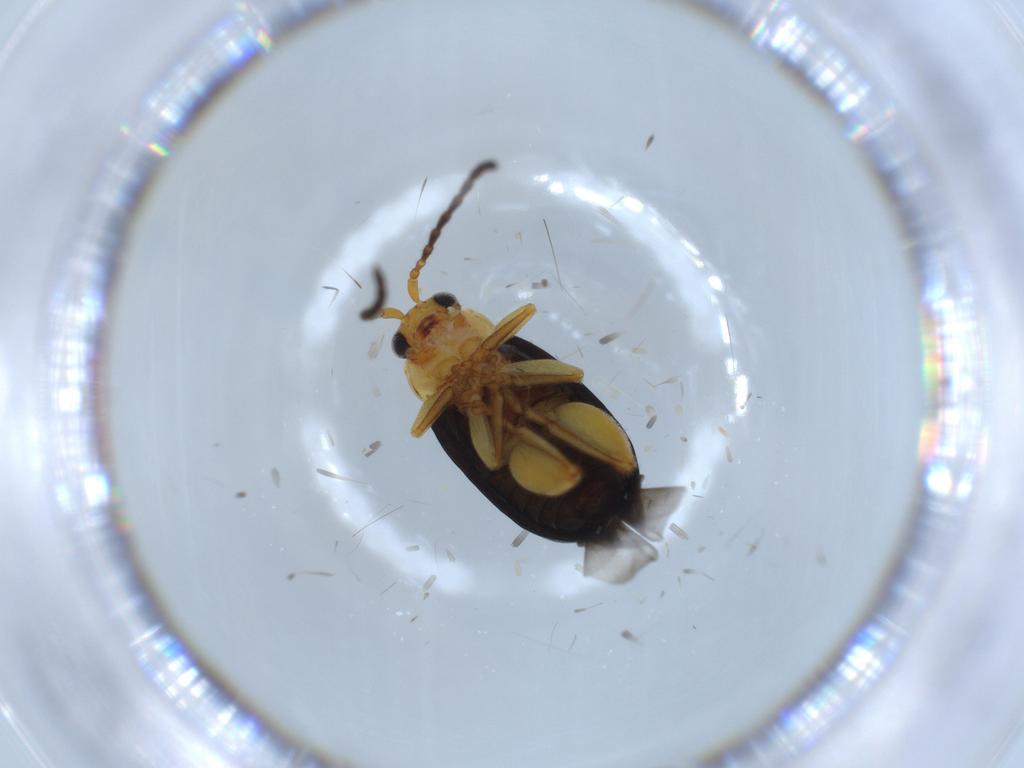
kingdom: Animalia
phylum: Arthropoda
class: Insecta
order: Coleoptera
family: Chrysomelidae
